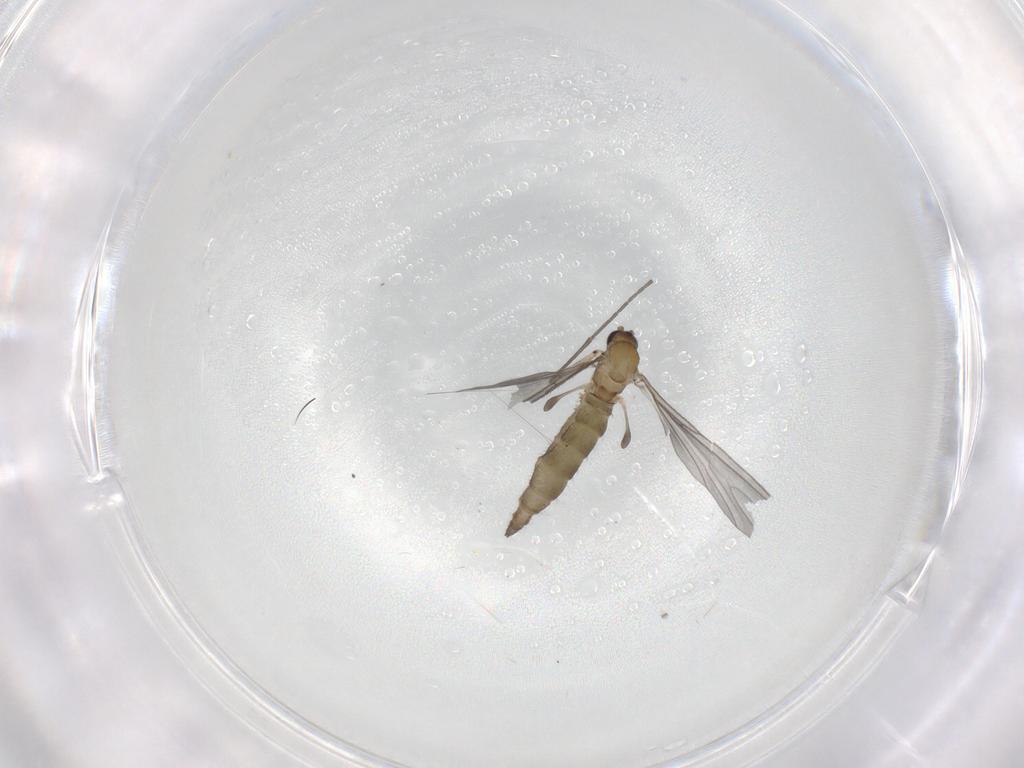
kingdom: Animalia
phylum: Arthropoda
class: Insecta
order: Diptera
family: Sciaridae
